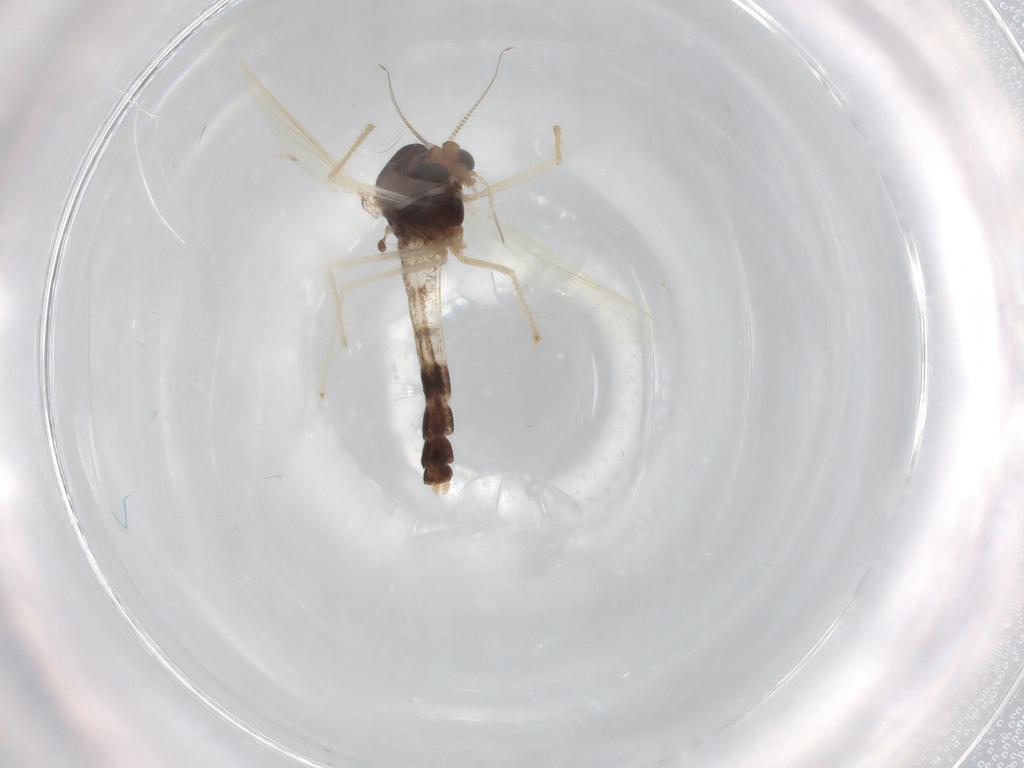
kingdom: Animalia
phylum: Arthropoda
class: Insecta
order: Diptera
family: Chironomidae
